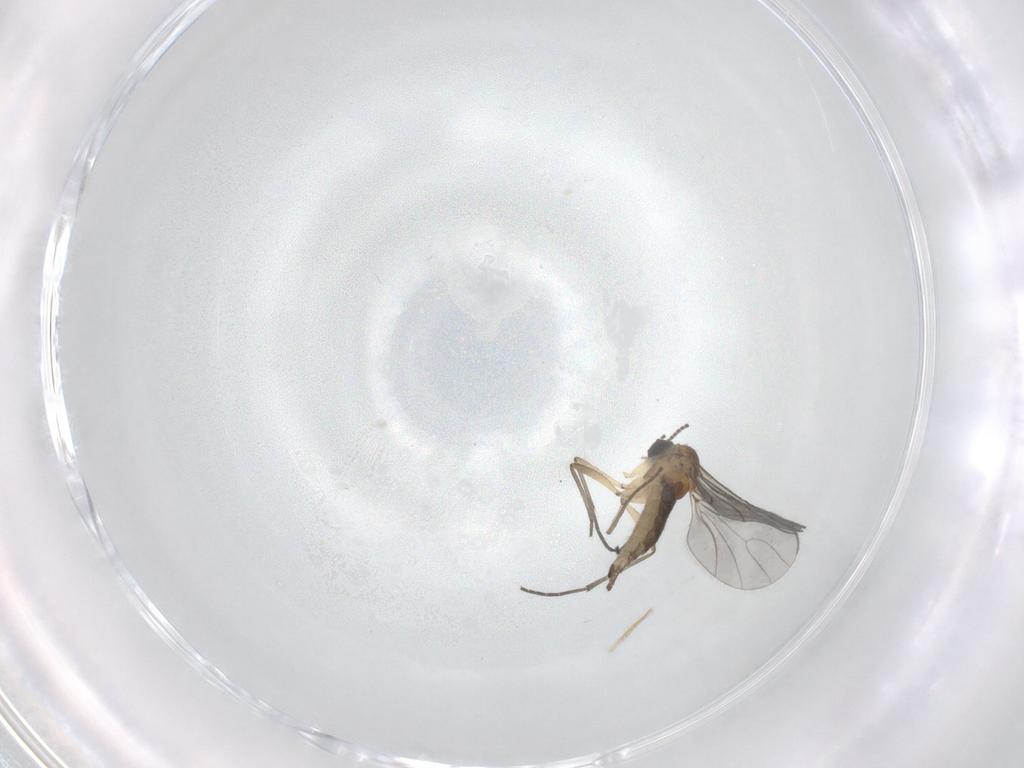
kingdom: Animalia
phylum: Arthropoda
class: Insecta
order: Diptera
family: Sciaridae
